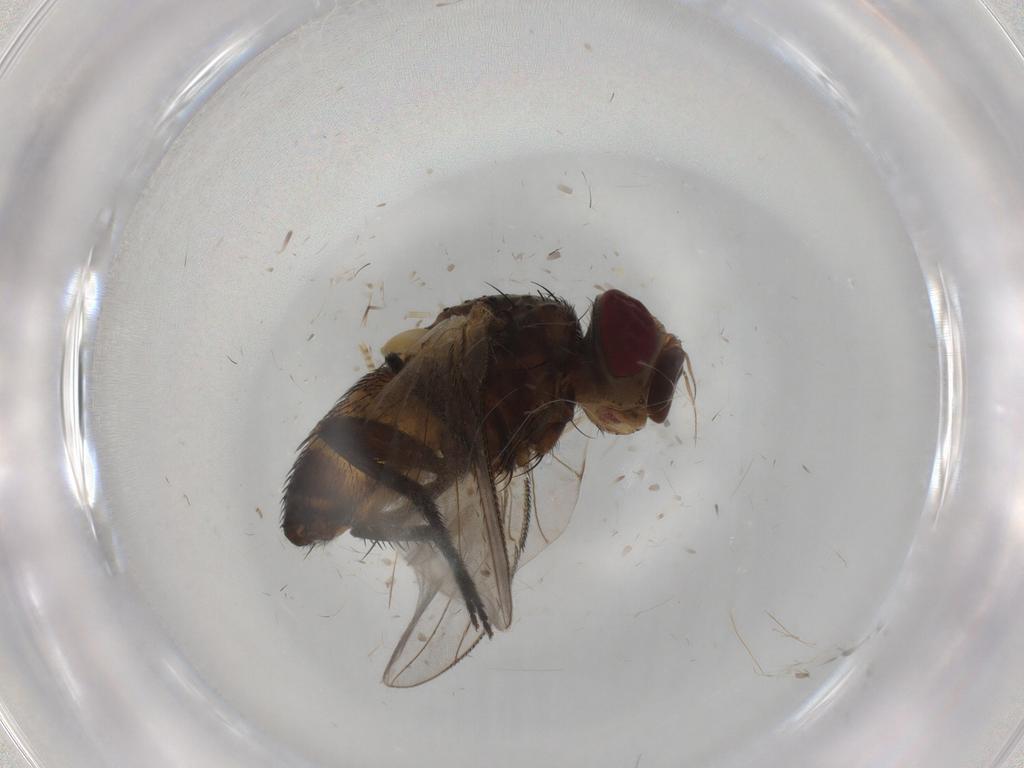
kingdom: Animalia
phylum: Arthropoda
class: Insecta
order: Diptera
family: Tachinidae
